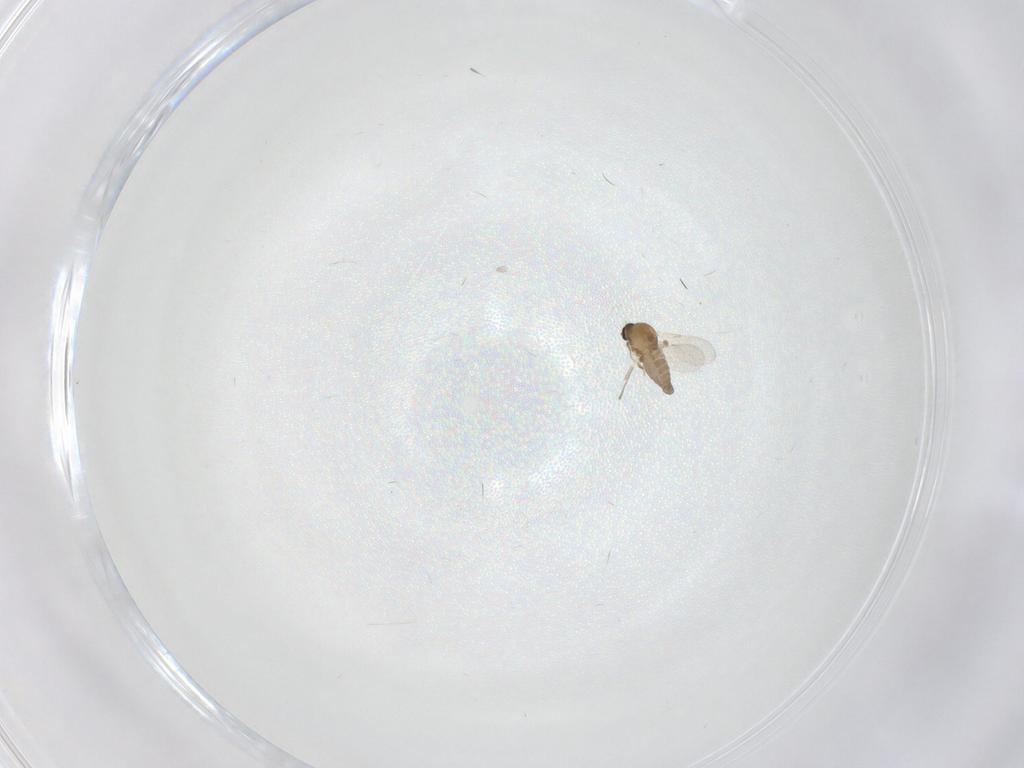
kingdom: Animalia
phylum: Arthropoda
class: Insecta
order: Diptera
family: Ceratopogonidae
